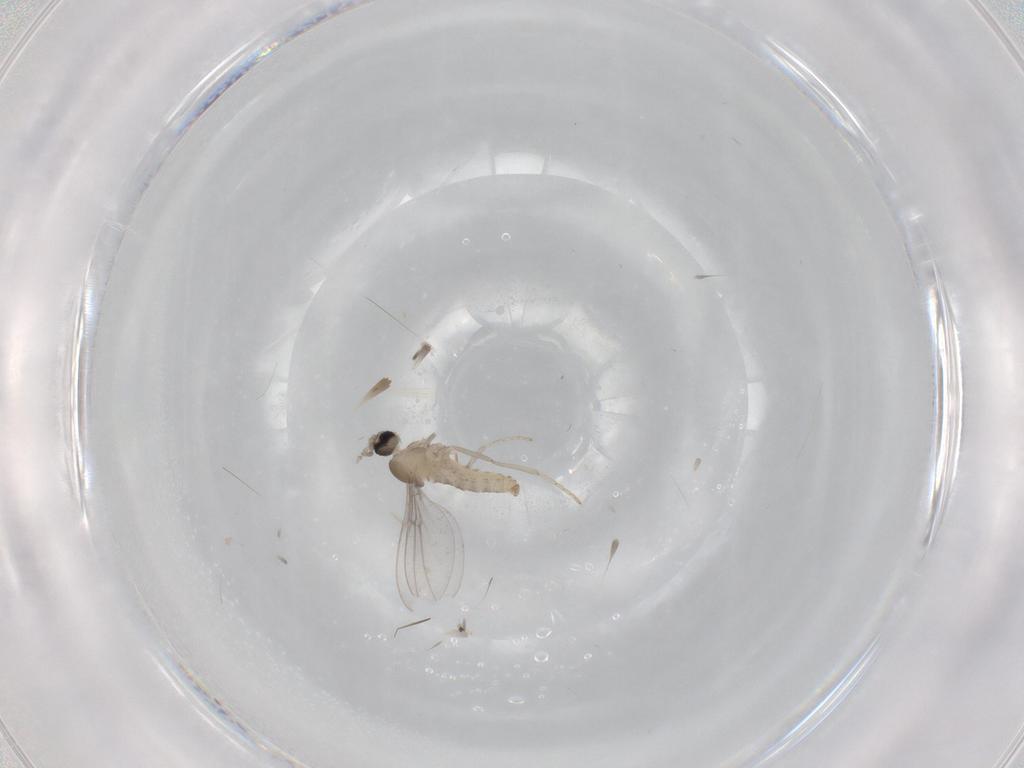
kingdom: Animalia
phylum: Arthropoda
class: Insecta
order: Diptera
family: Cecidomyiidae
